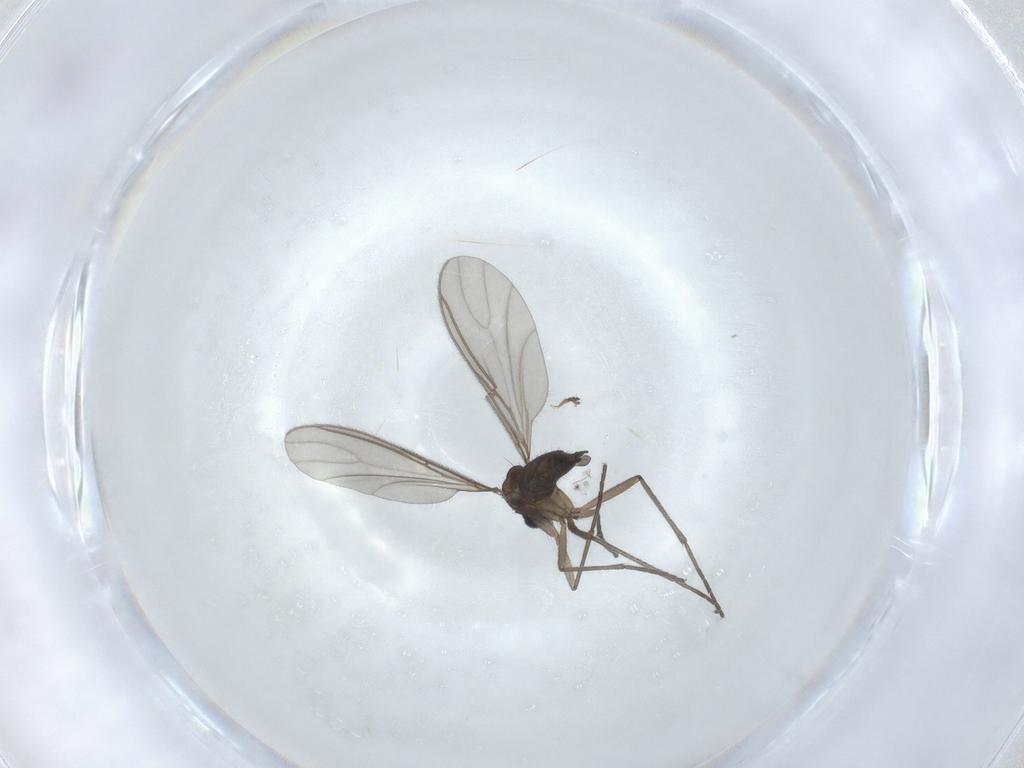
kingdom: Animalia
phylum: Arthropoda
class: Insecta
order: Diptera
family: Sciaridae
